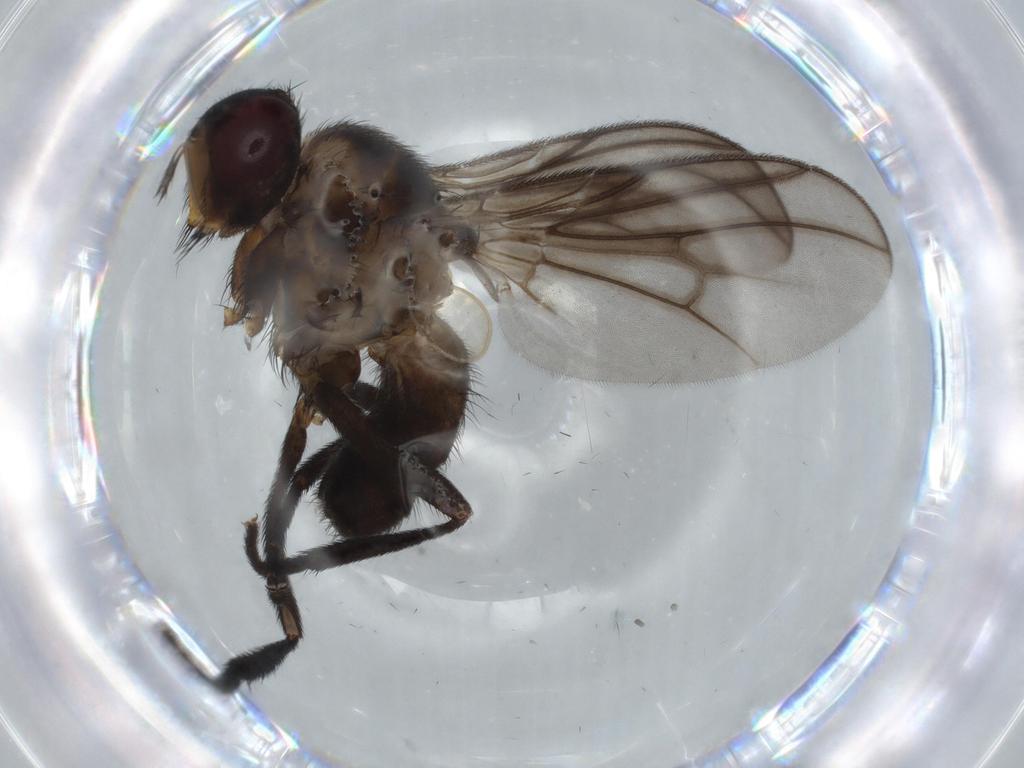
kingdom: Animalia
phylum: Arthropoda
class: Insecta
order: Diptera
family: Calliphoridae
